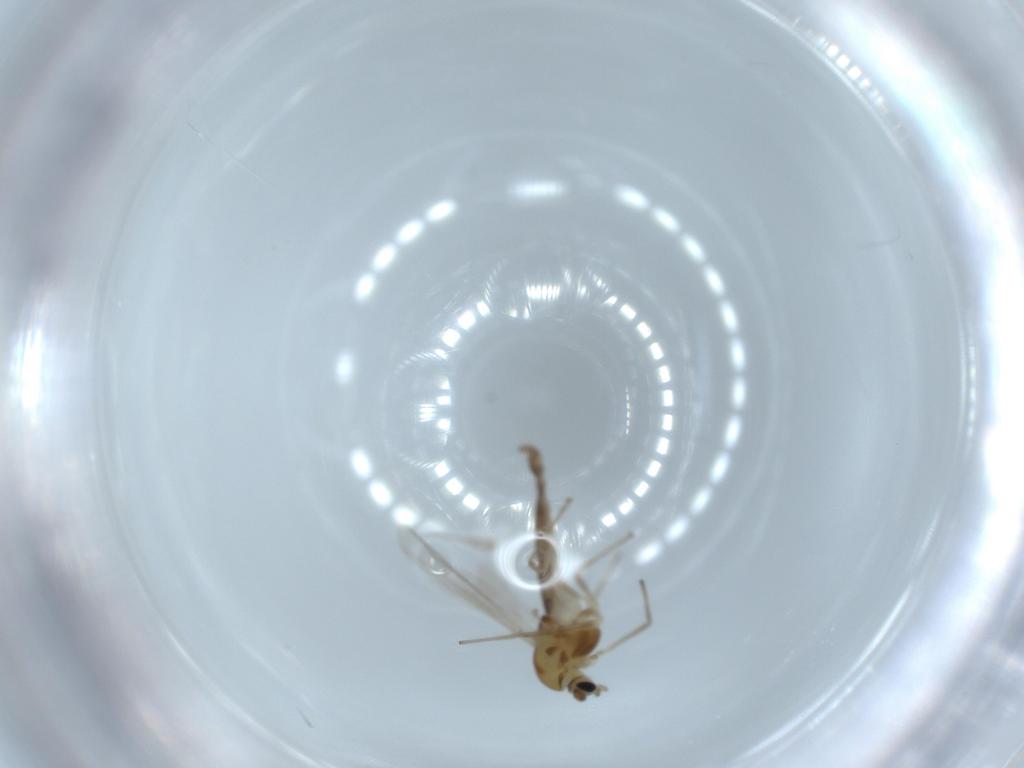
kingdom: Animalia
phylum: Arthropoda
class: Insecta
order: Diptera
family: Chironomidae
